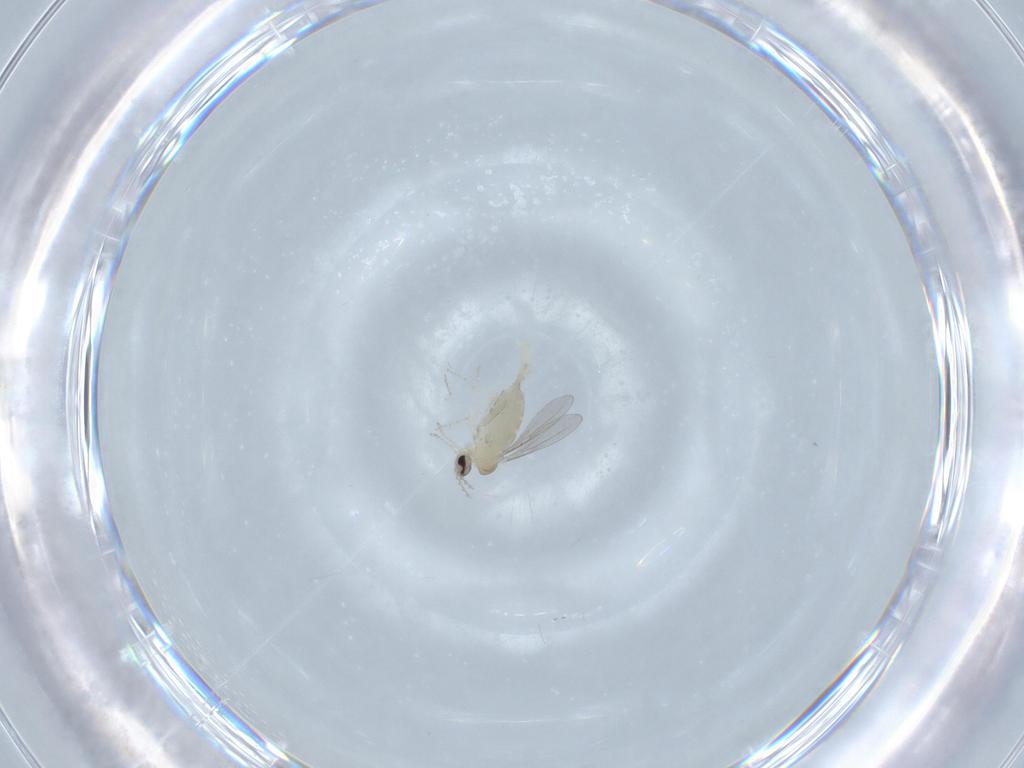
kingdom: Animalia
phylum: Arthropoda
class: Insecta
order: Diptera
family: Cecidomyiidae
